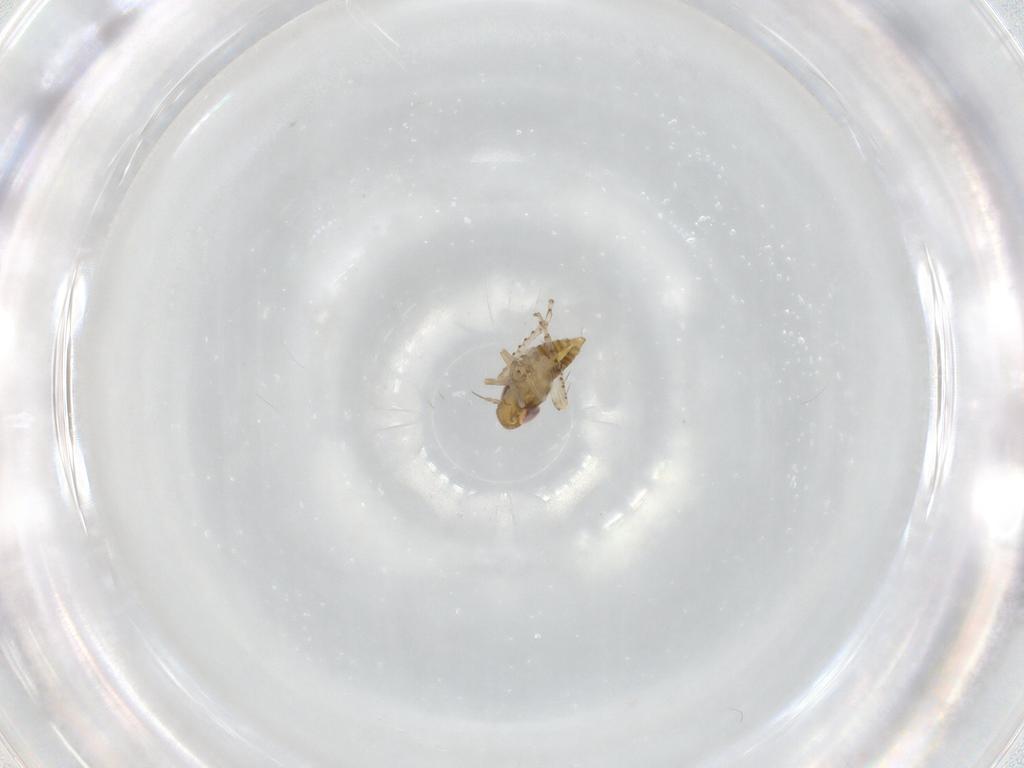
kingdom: Animalia
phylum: Arthropoda
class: Insecta
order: Hemiptera
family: Cicadellidae
